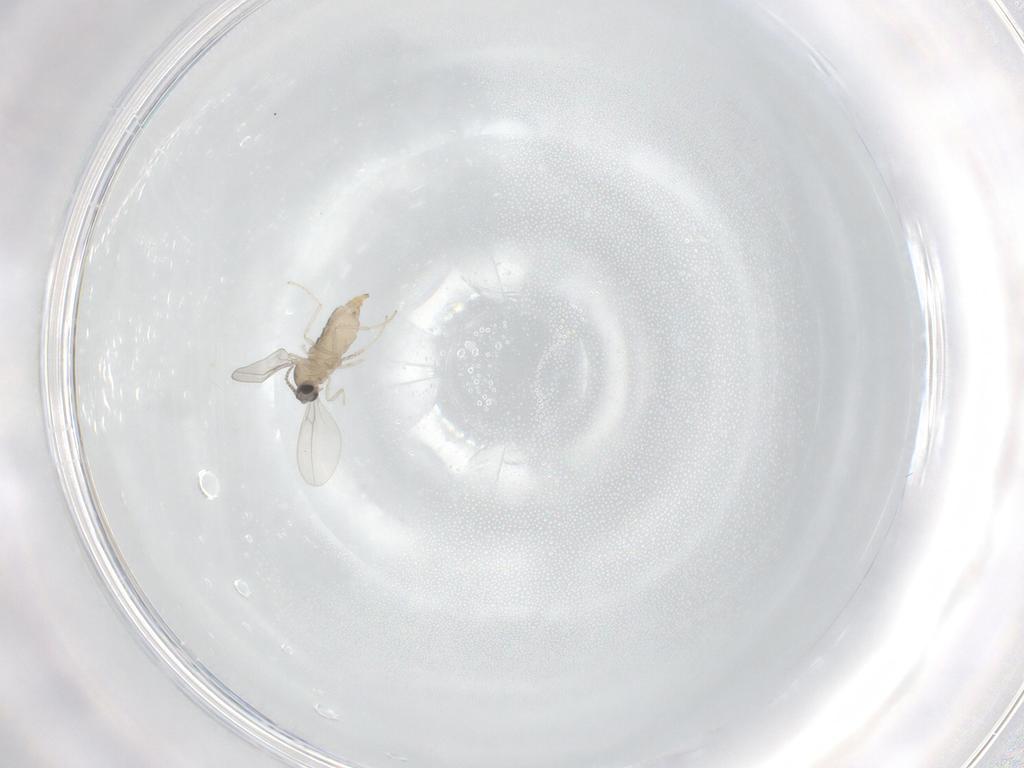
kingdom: Animalia
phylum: Arthropoda
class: Insecta
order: Diptera
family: Cecidomyiidae
